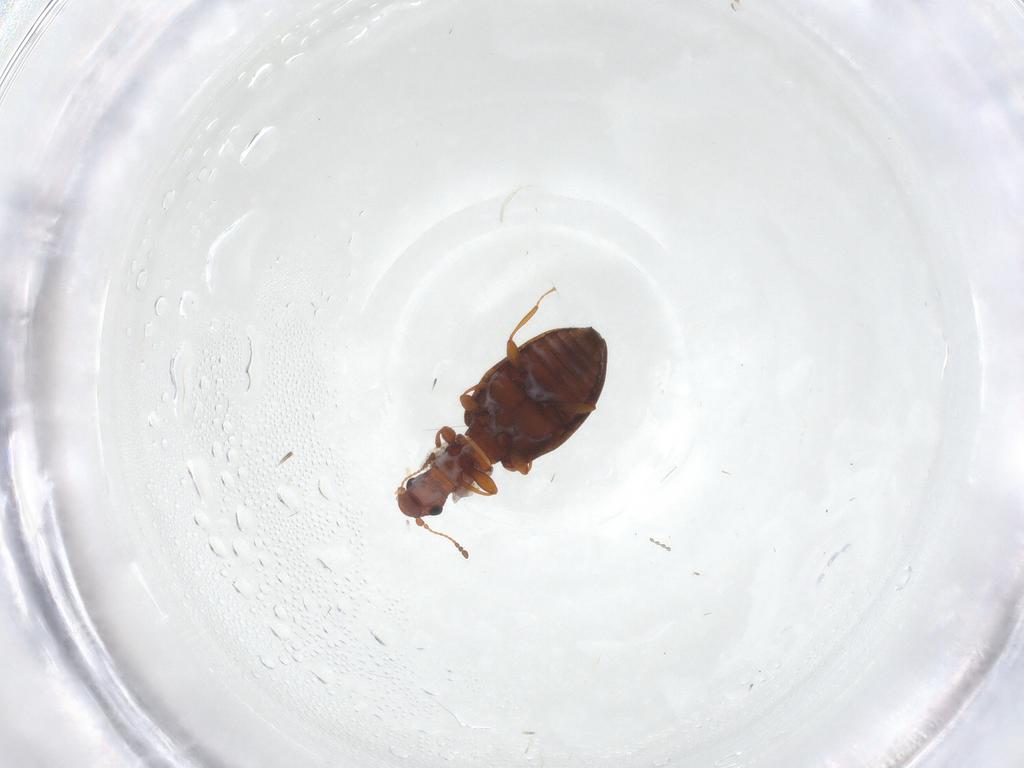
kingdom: Animalia
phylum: Arthropoda
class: Insecta
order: Coleoptera
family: Latridiidae
